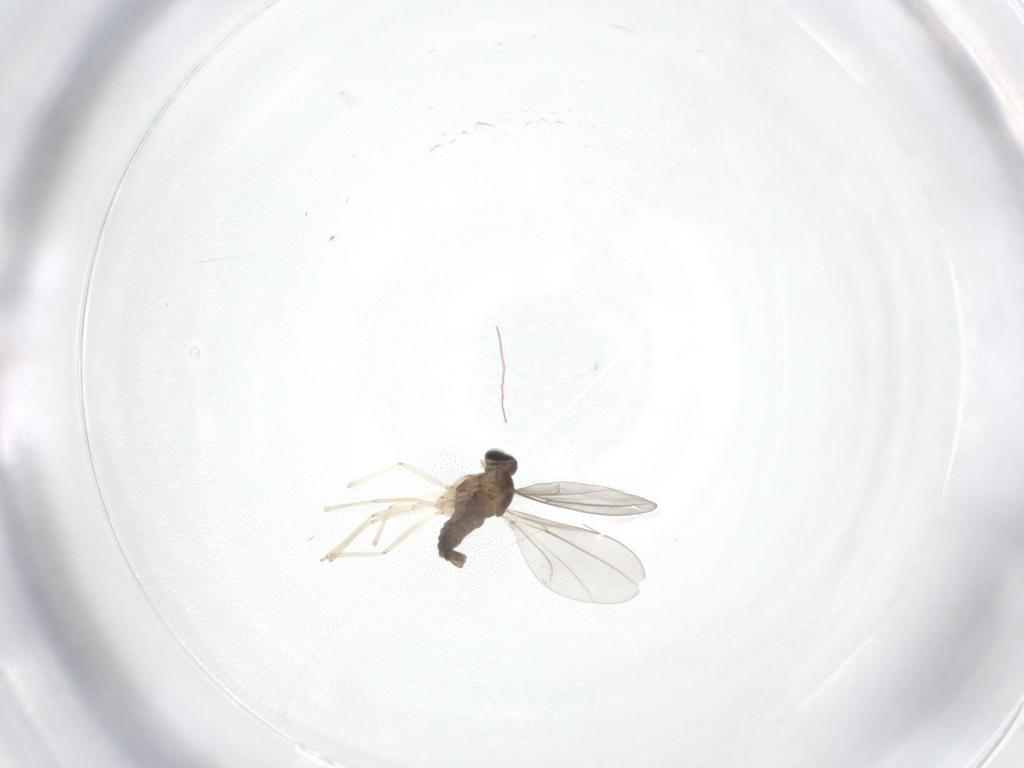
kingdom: Animalia
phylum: Arthropoda
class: Insecta
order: Diptera
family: Cecidomyiidae
